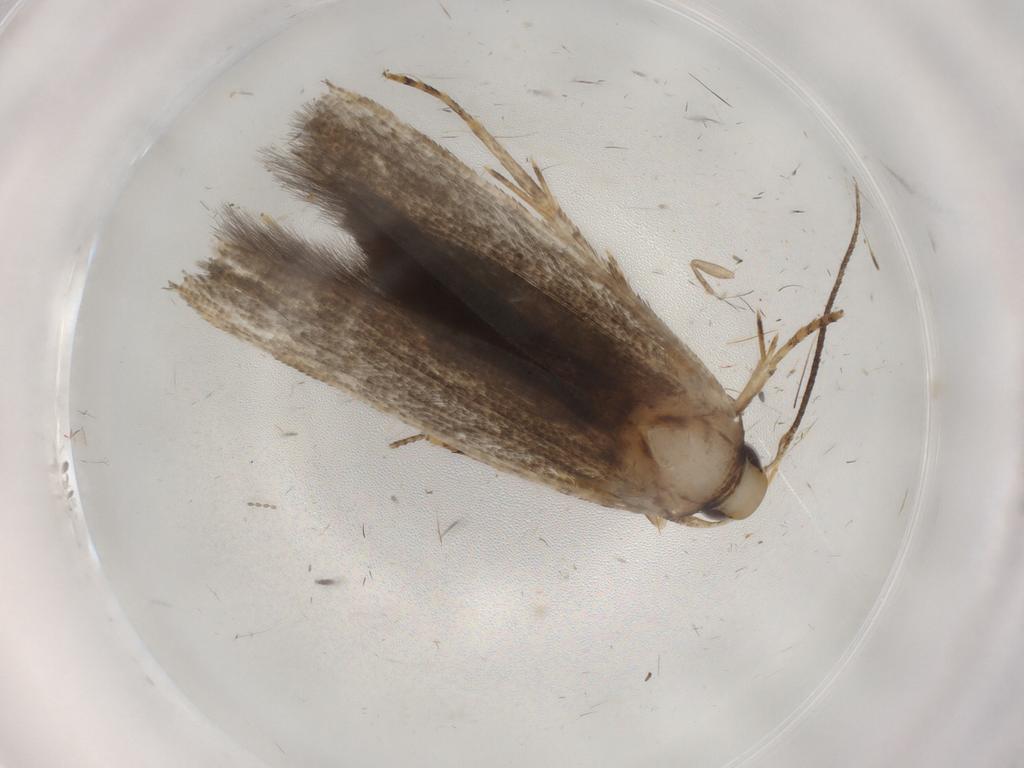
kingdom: Animalia
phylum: Arthropoda
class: Insecta
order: Lepidoptera
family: Coleophoridae
